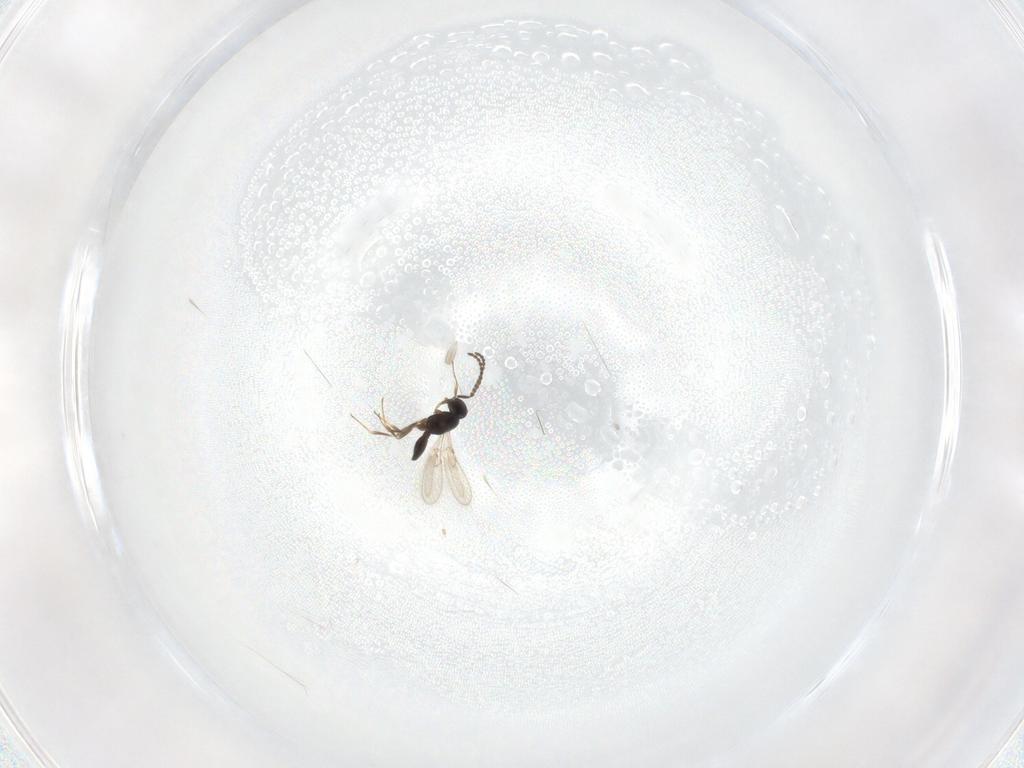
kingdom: Animalia
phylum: Arthropoda
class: Insecta
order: Hymenoptera
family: Scelionidae
